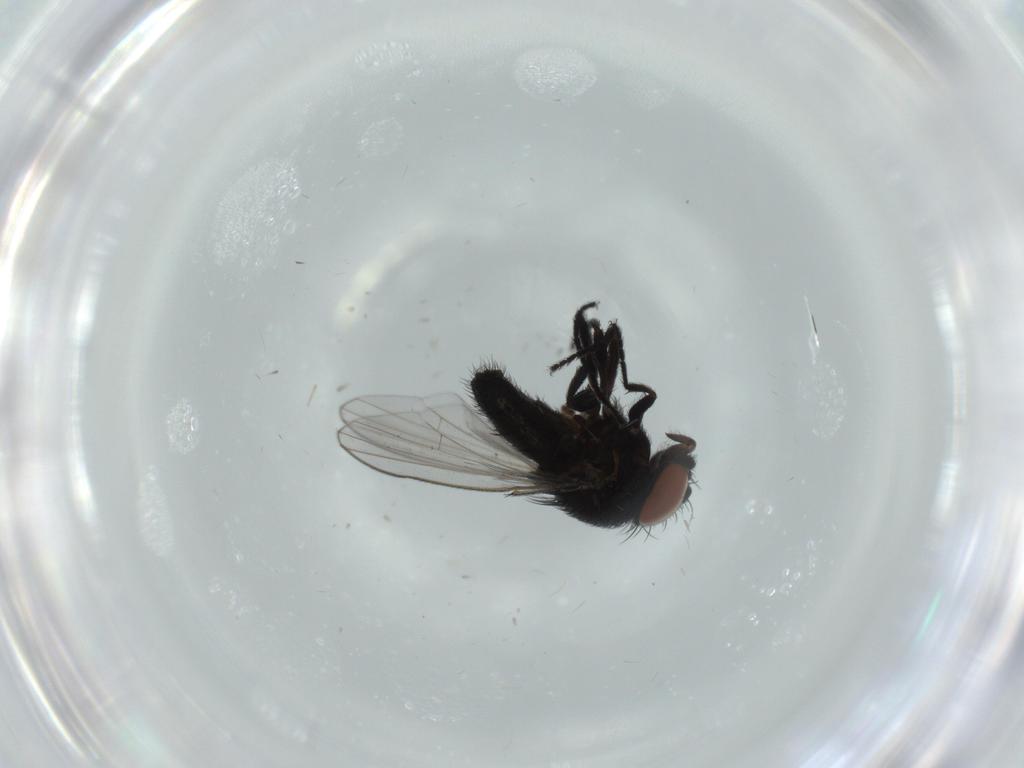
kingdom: Animalia
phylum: Arthropoda
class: Insecta
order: Diptera
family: Milichiidae
